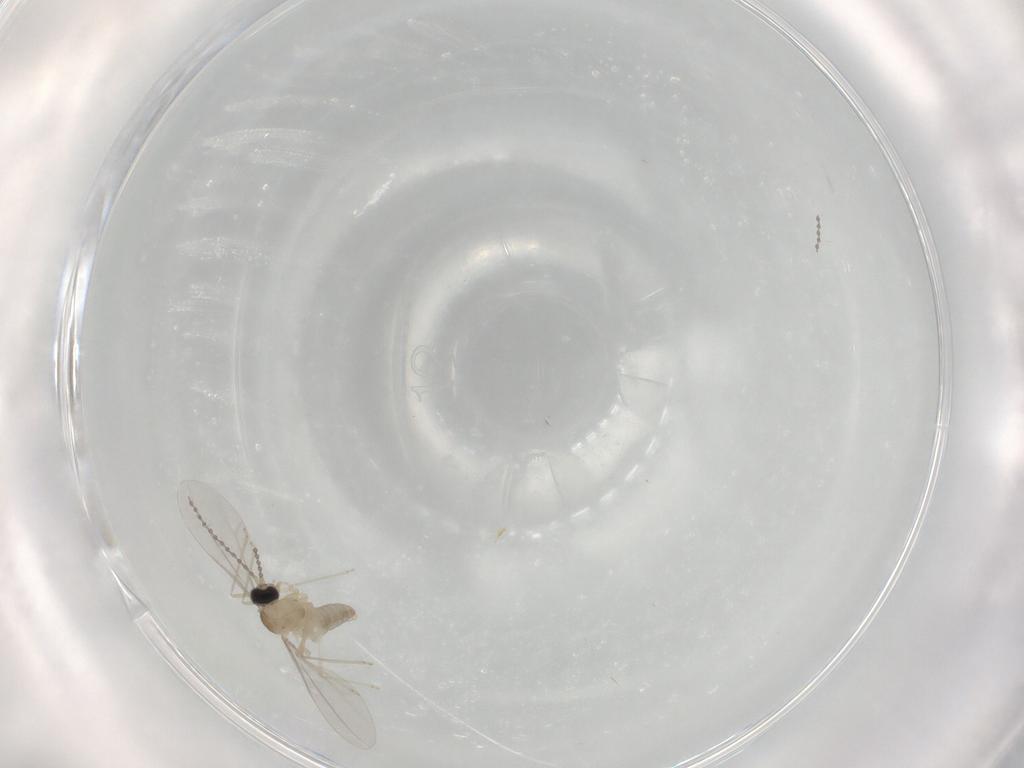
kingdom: Animalia
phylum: Arthropoda
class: Insecta
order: Diptera
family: Cecidomyiidae
